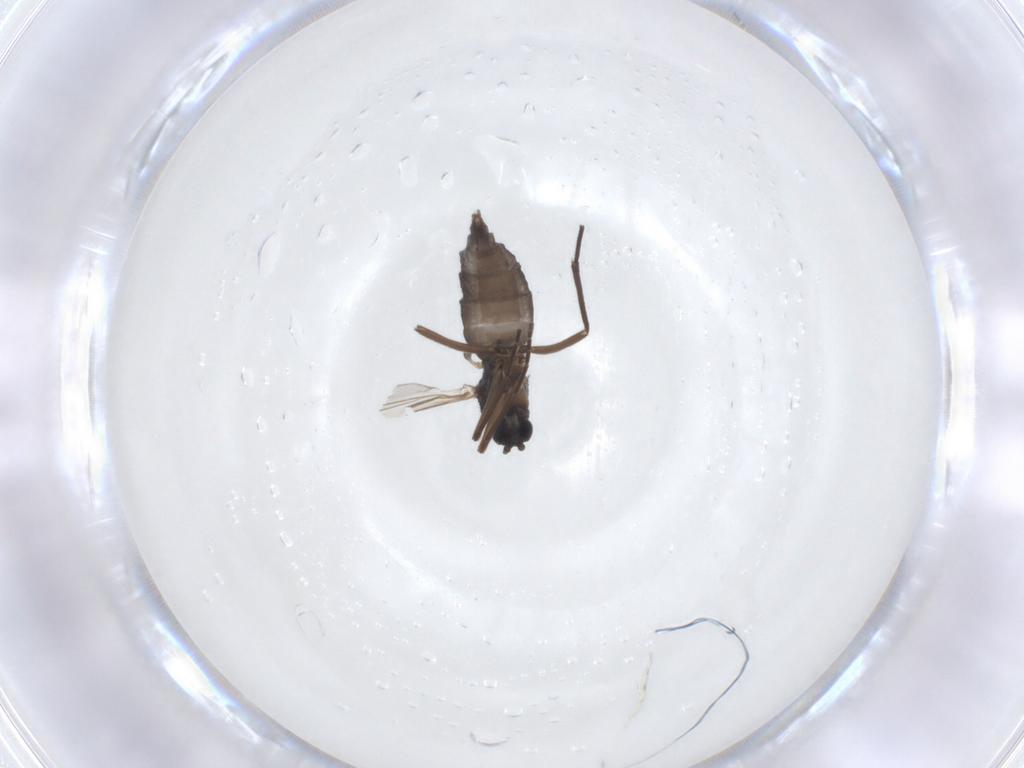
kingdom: Animalia
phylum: Arthropoda
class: Insecta
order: Diptera
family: Sciaridae
